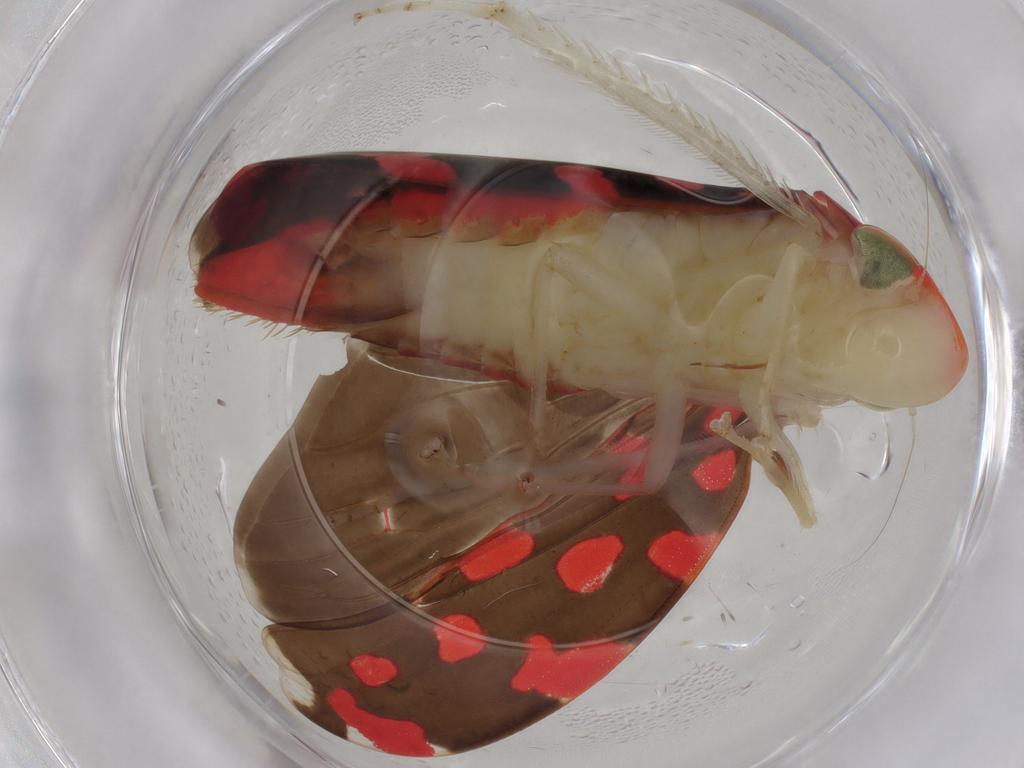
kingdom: Animalia
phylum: Arthropoda
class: Insecta
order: Hemiptera
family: Cicadellidae
